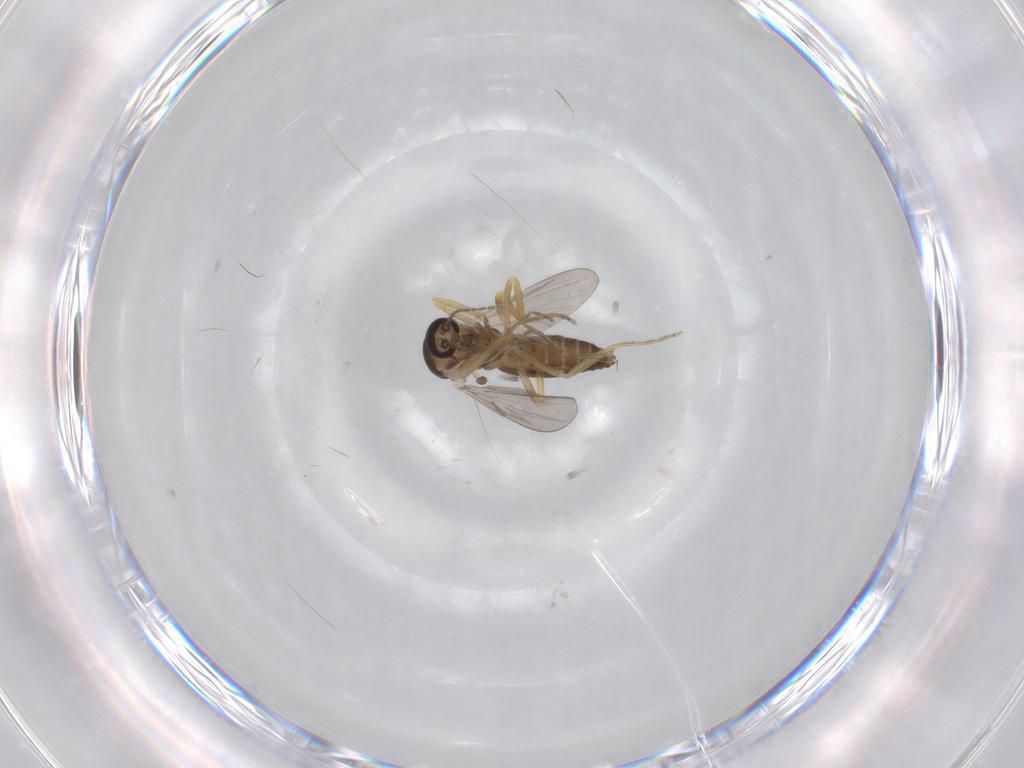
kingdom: Animalia
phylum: Arthropoda
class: Insecta
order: Diptera
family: Ceratopogonidae
